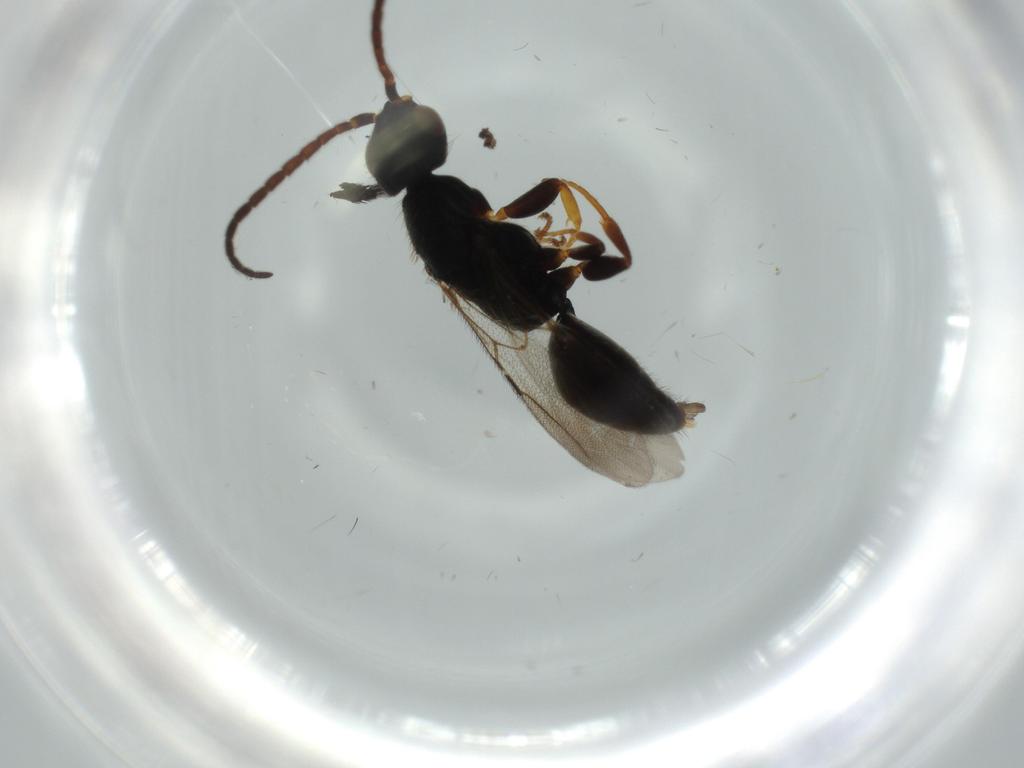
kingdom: Animalia
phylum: Arthropoda
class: Insecta
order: Hymenoptera
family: Bethylidae
